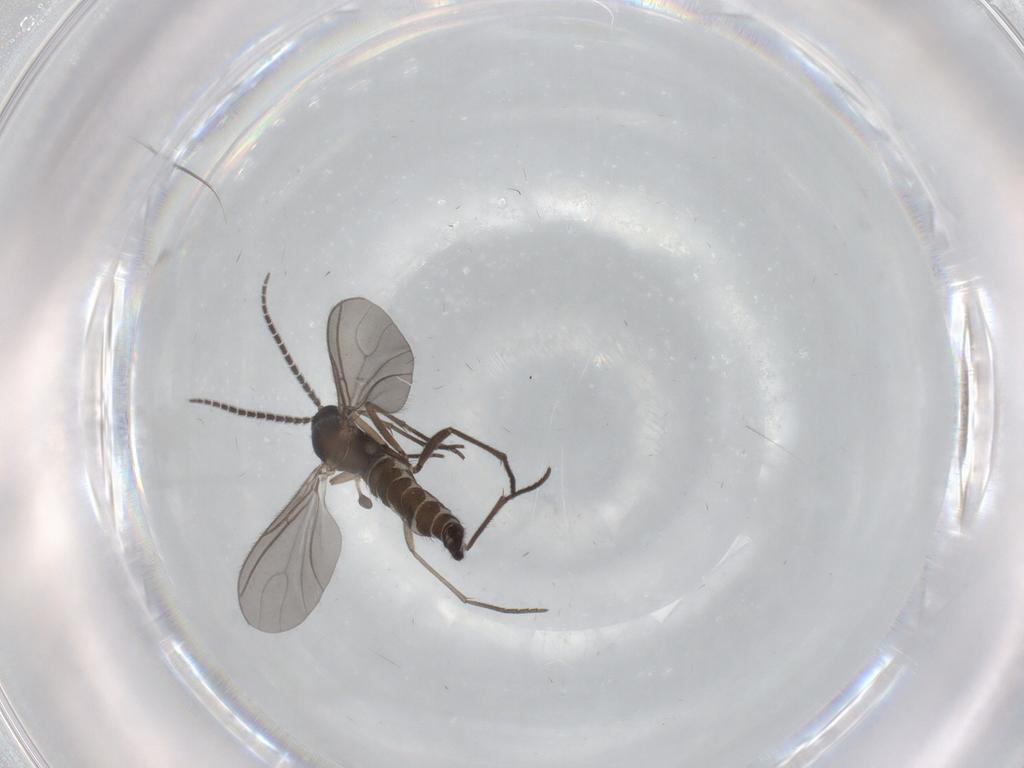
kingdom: Animalia
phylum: Arthropoda
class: Insecta
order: Diptera
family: Sciaridae
